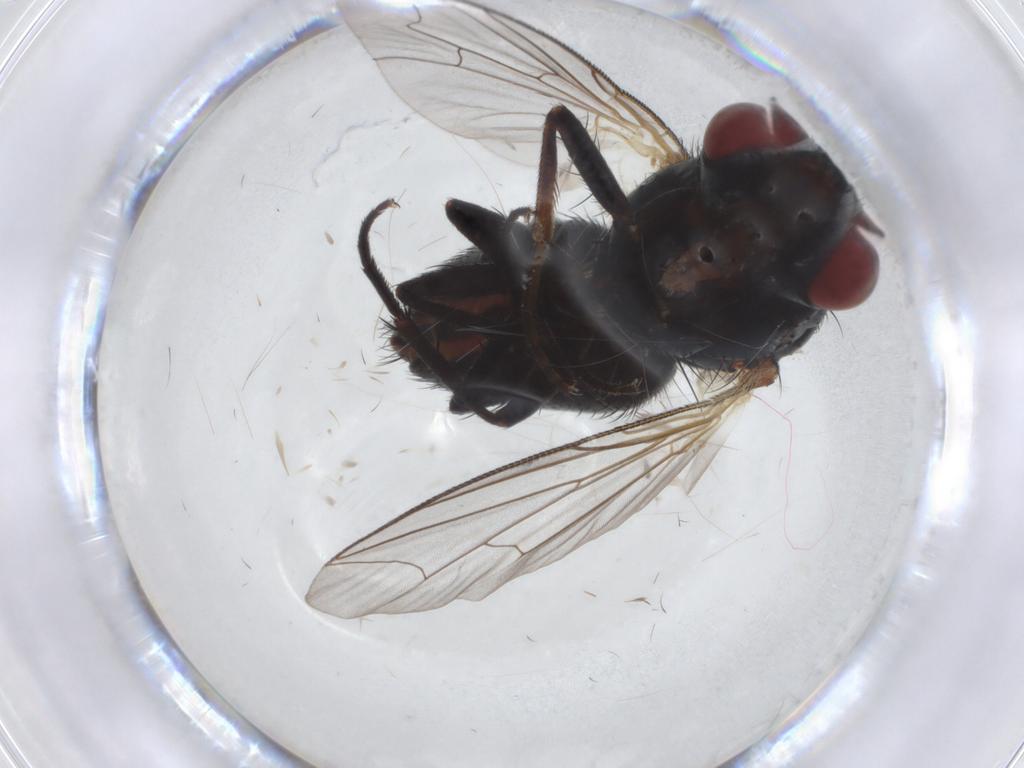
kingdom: Animalia
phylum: Arthropoda
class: Insecta
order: Diptera
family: Sarcophagidae
